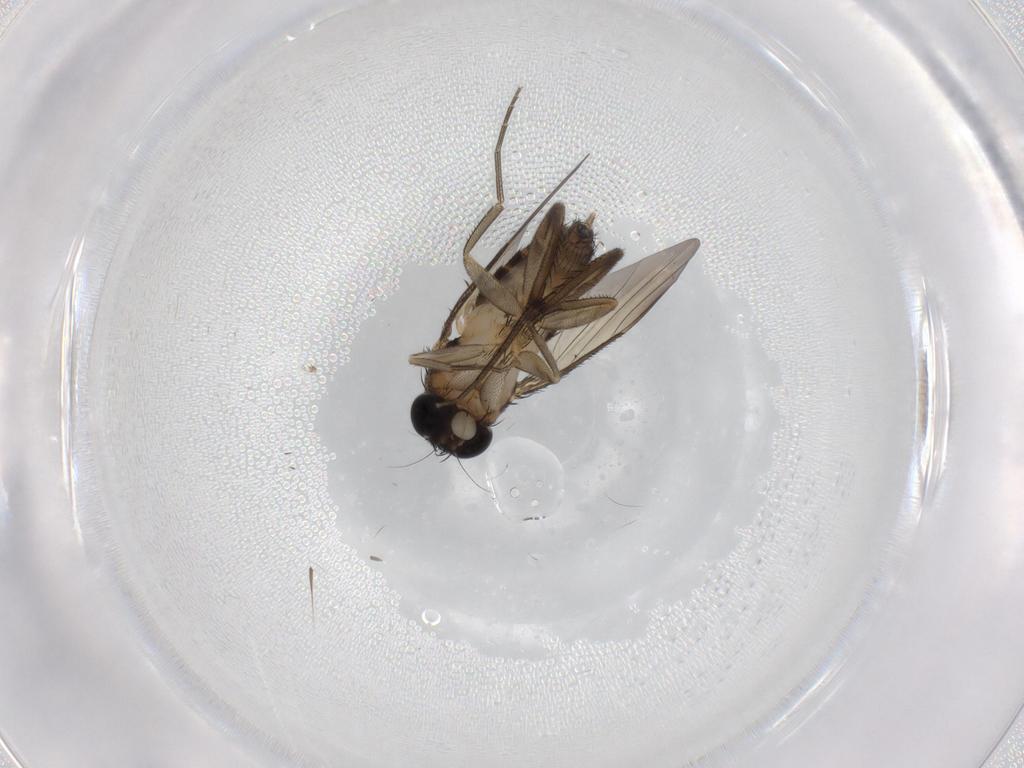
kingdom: Animalia
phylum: Arthropoda
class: Insecta
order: Diptera
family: Phoridae
